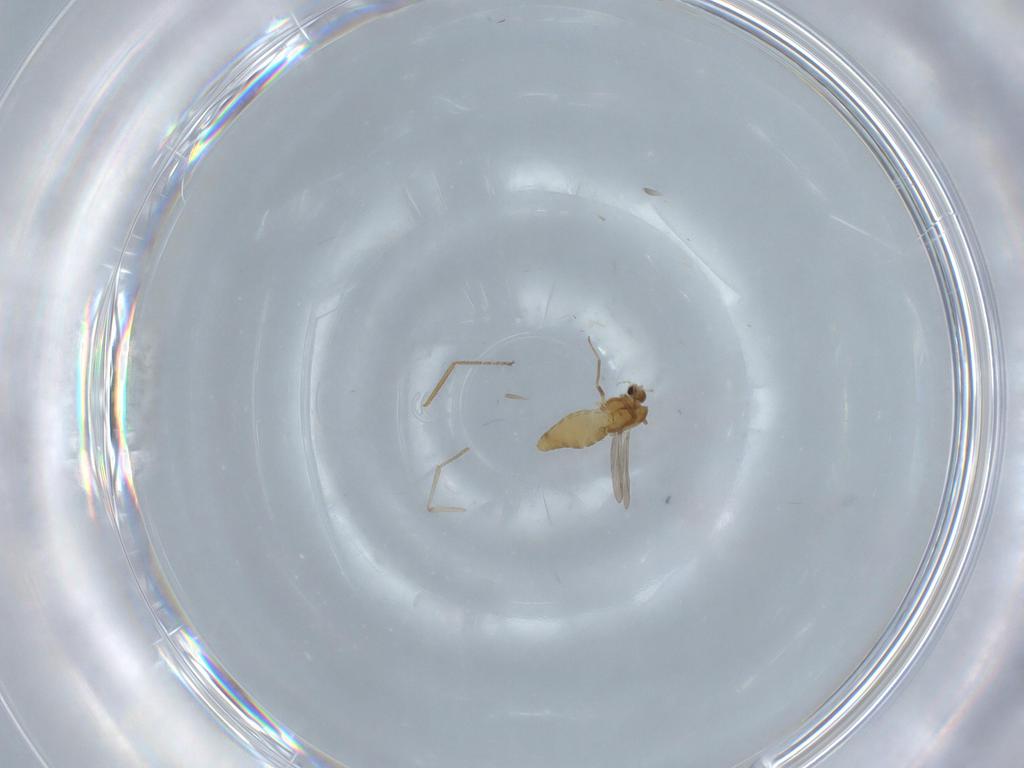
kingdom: Animalia
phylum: Arthropoda
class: Insecta
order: Diptera
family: Chironomidae
